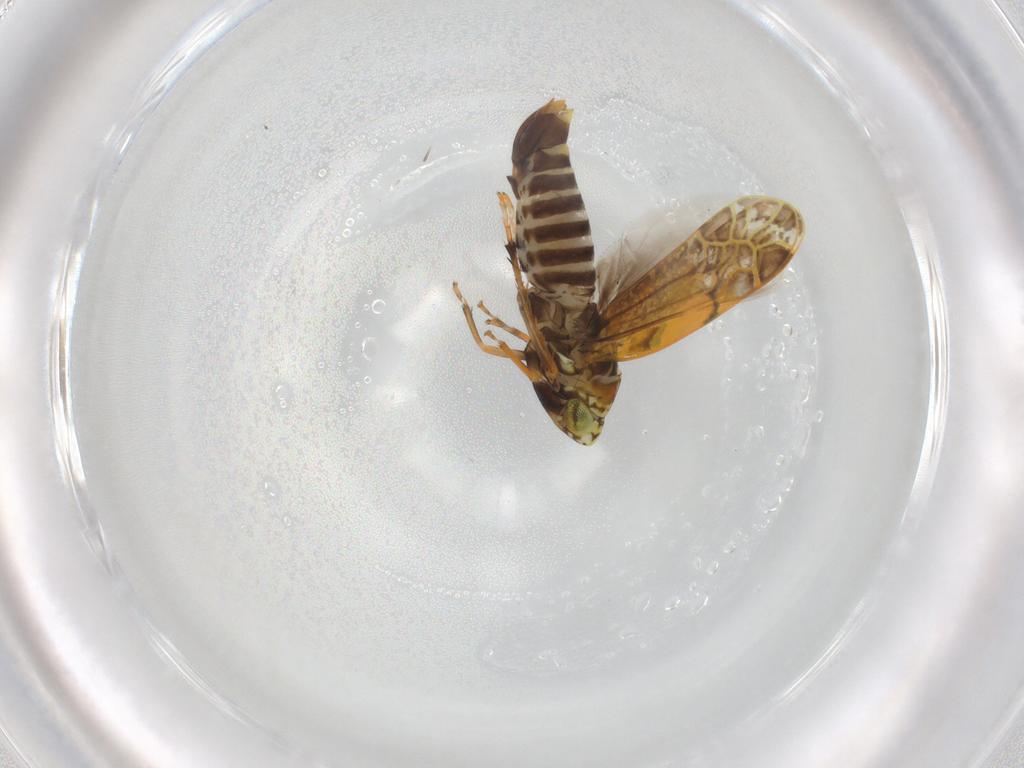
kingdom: Animalia
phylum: Arthropoda
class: Insecta
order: Hemiptera
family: Cicadellidae
